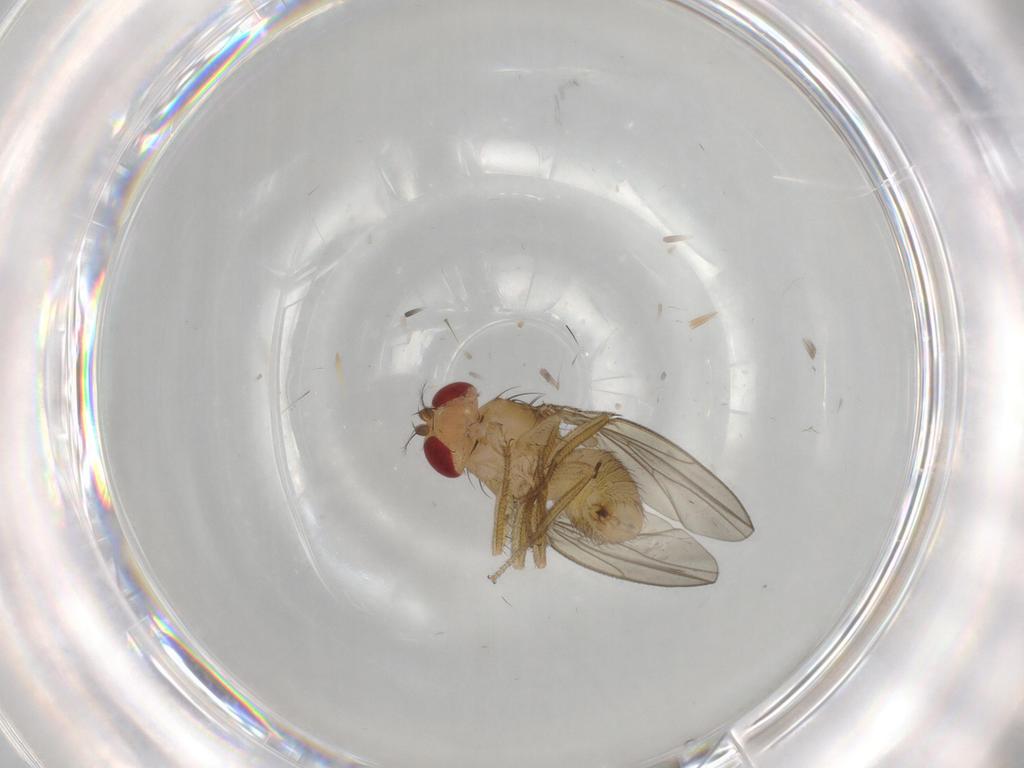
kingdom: Animalia
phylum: Arthropoda
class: Insecta
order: Diptera
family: Drosophilidae
